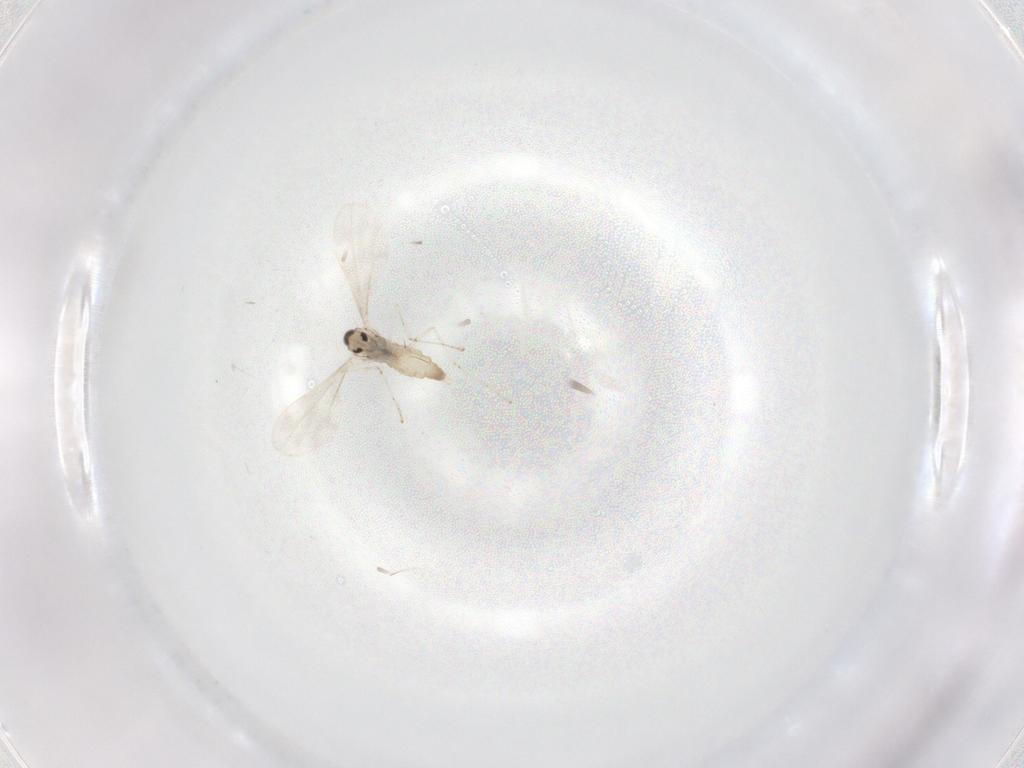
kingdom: Animalia
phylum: Arthropoda
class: Insecta
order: Diptera
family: Cecidomyiidae
